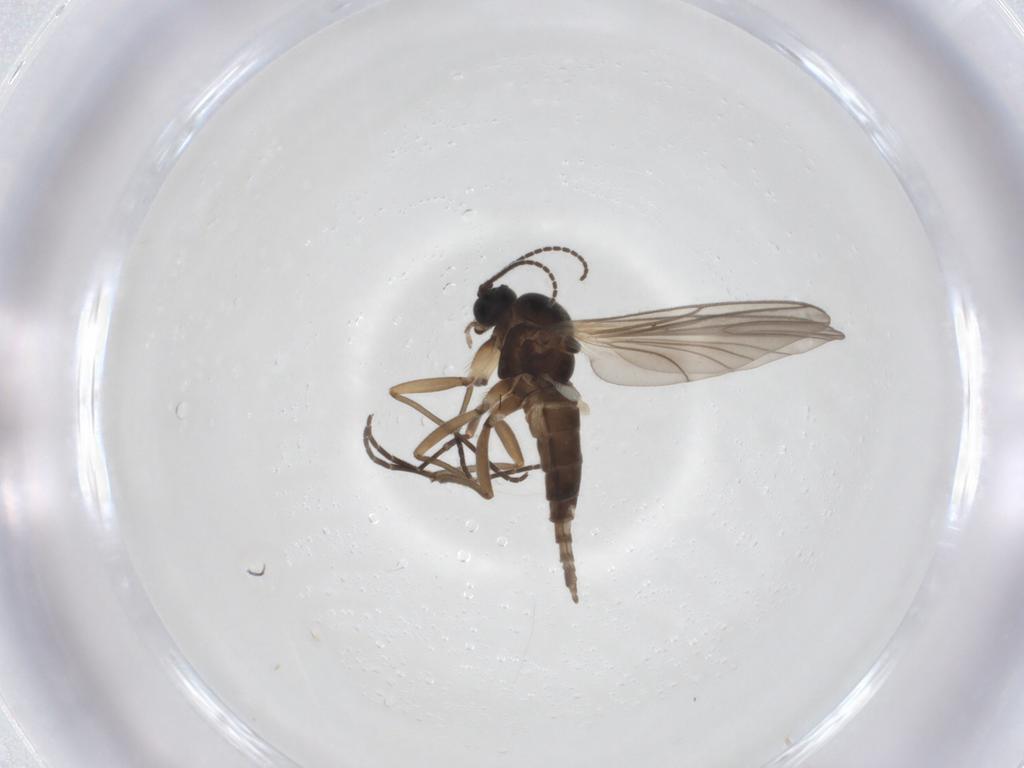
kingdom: Animalia
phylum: Arthropoda
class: Insecta
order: Diptera
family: Sciaridae
